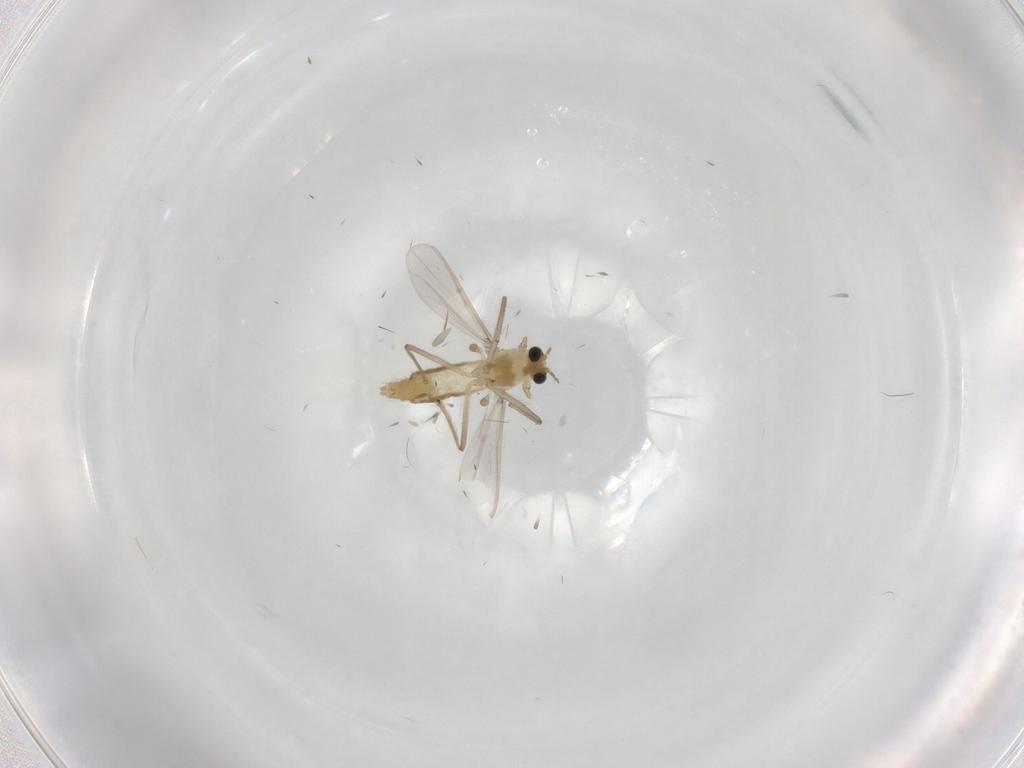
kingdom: Animalia
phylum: Arthropoda
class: Insecta
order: Diptera
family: Chironomidae
